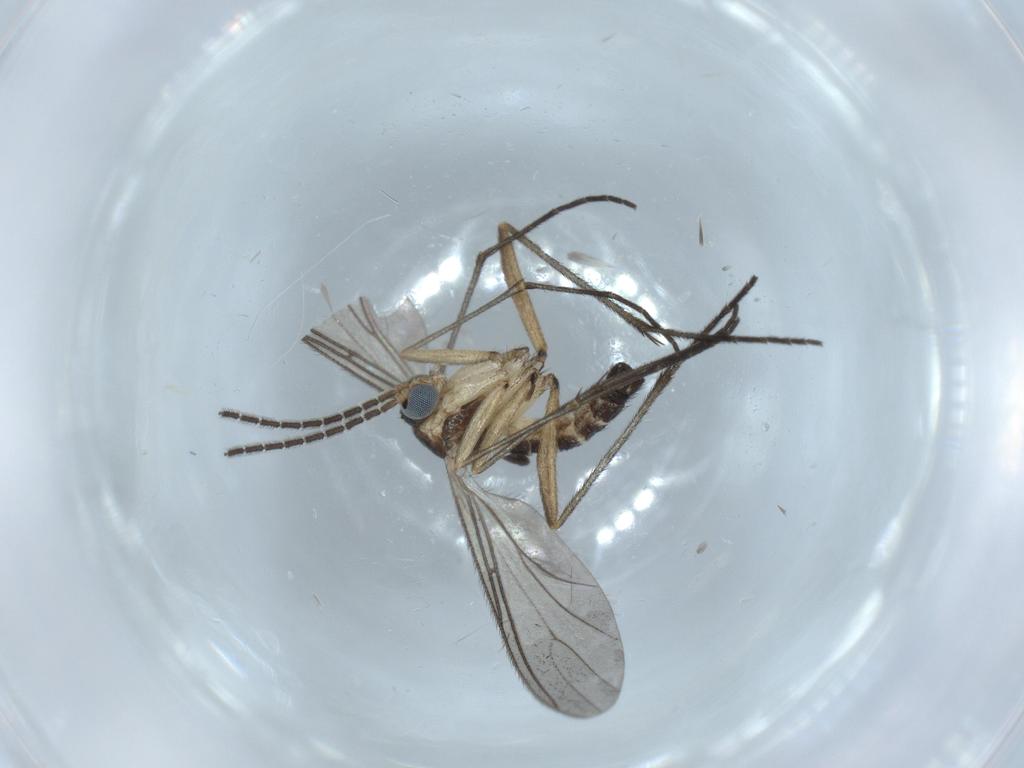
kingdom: Animalia
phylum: Arthropoda
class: Insecta
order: Diptera
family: Sciaridae
